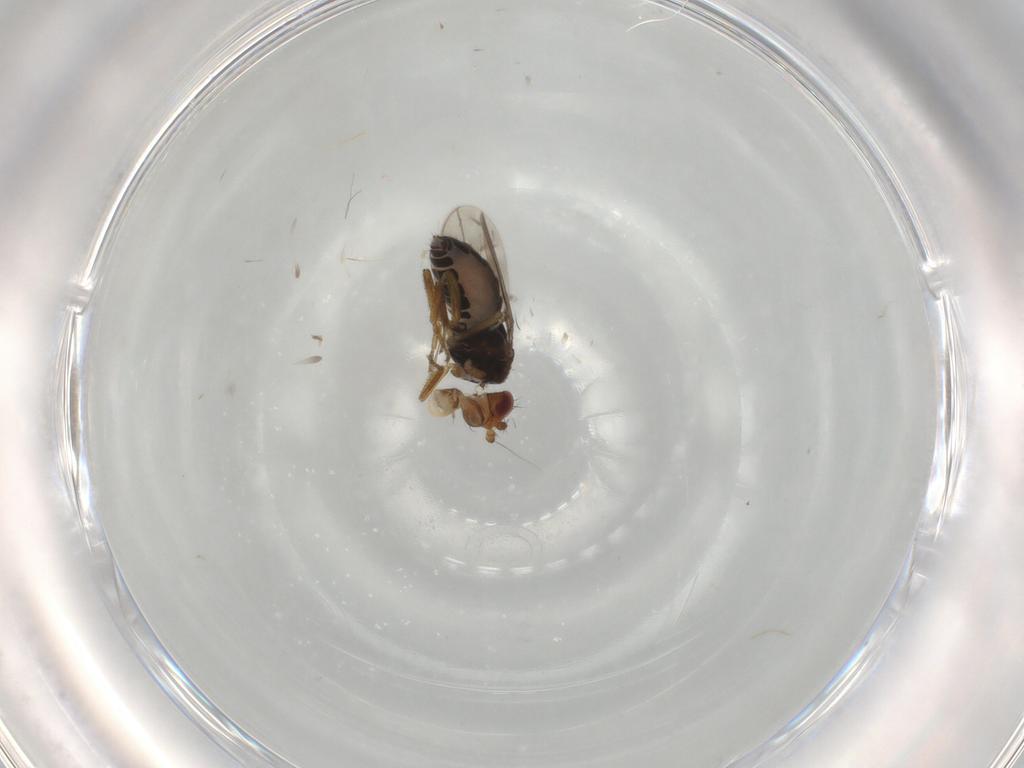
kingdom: Animalia
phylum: Arthropoda
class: Insecta
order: Diptera
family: Sphaeroceridae
